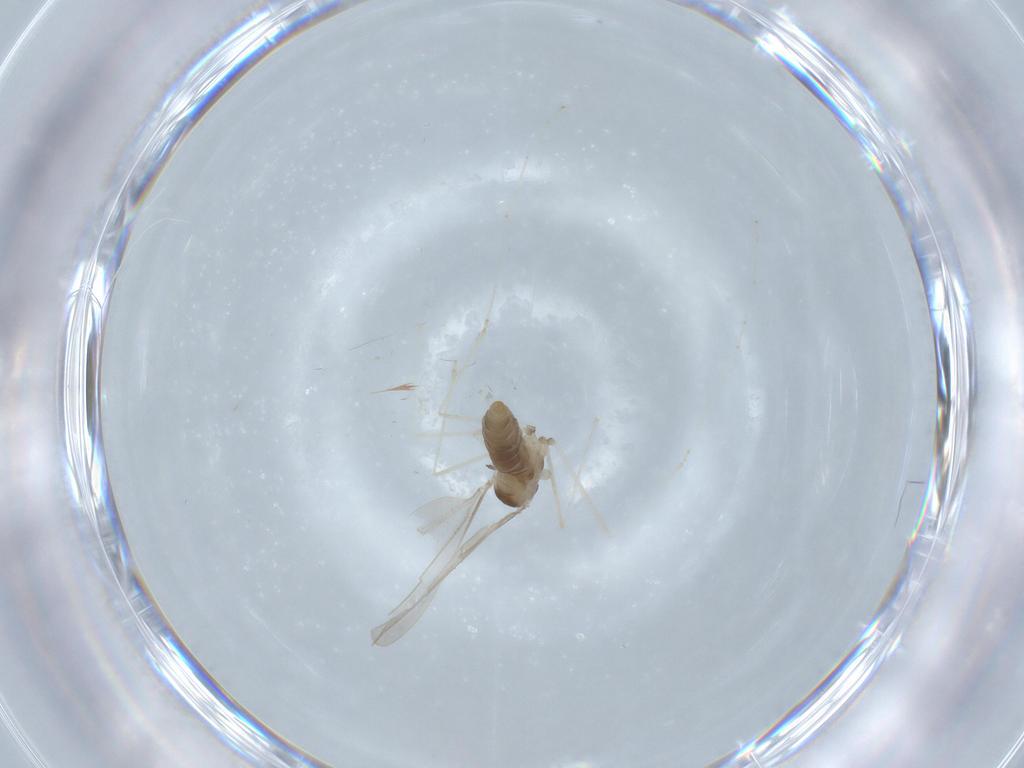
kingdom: Animalia
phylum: Arthropoda
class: Insecta
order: Diptera
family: Cecidomyiidae
